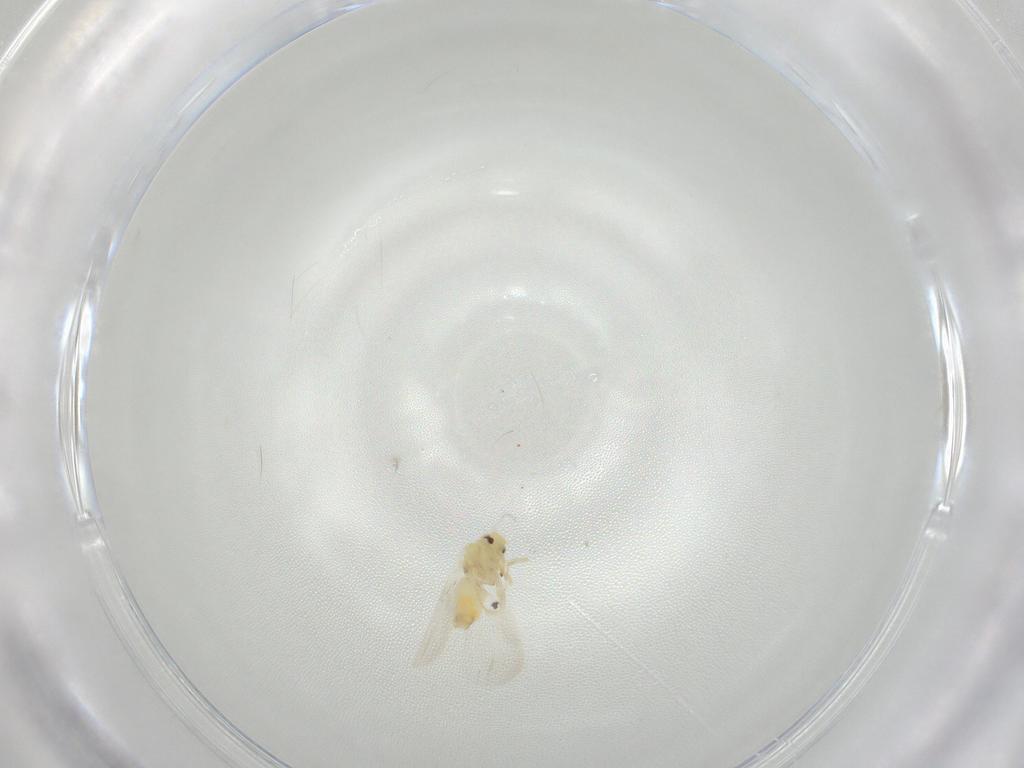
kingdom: Animalia
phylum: Arthropoda
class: Insecta
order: Hemiptera
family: Aleyrodidae
